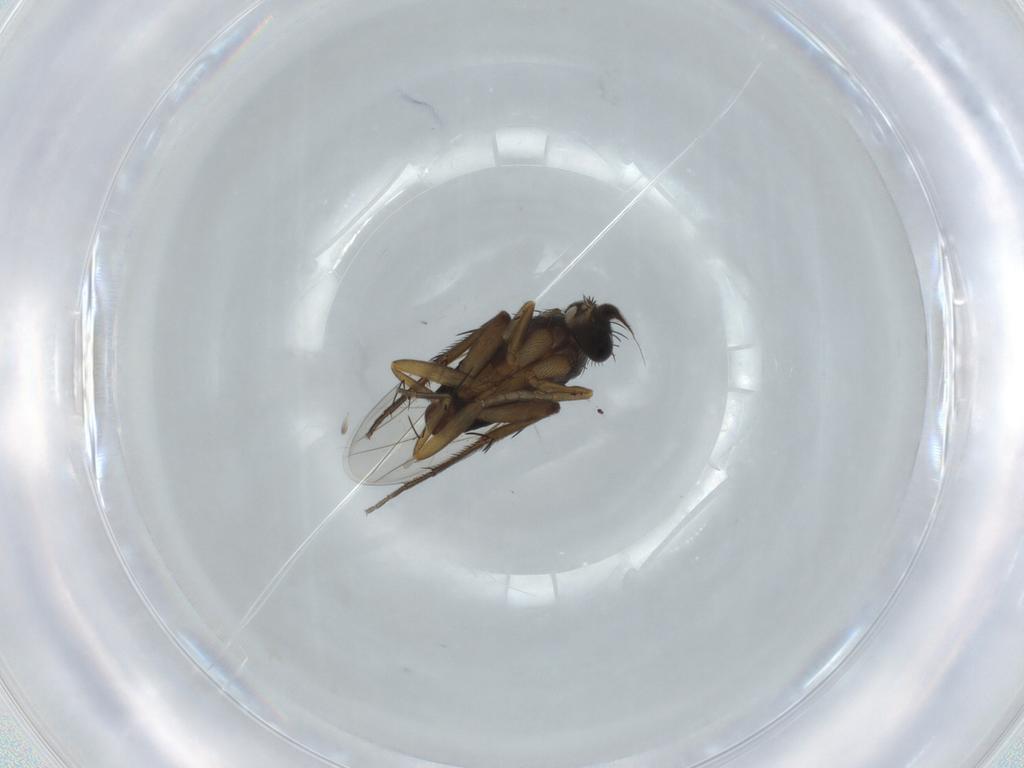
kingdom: Animalia
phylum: Arthropoda
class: Insecta
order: Diptera
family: Phoridae
